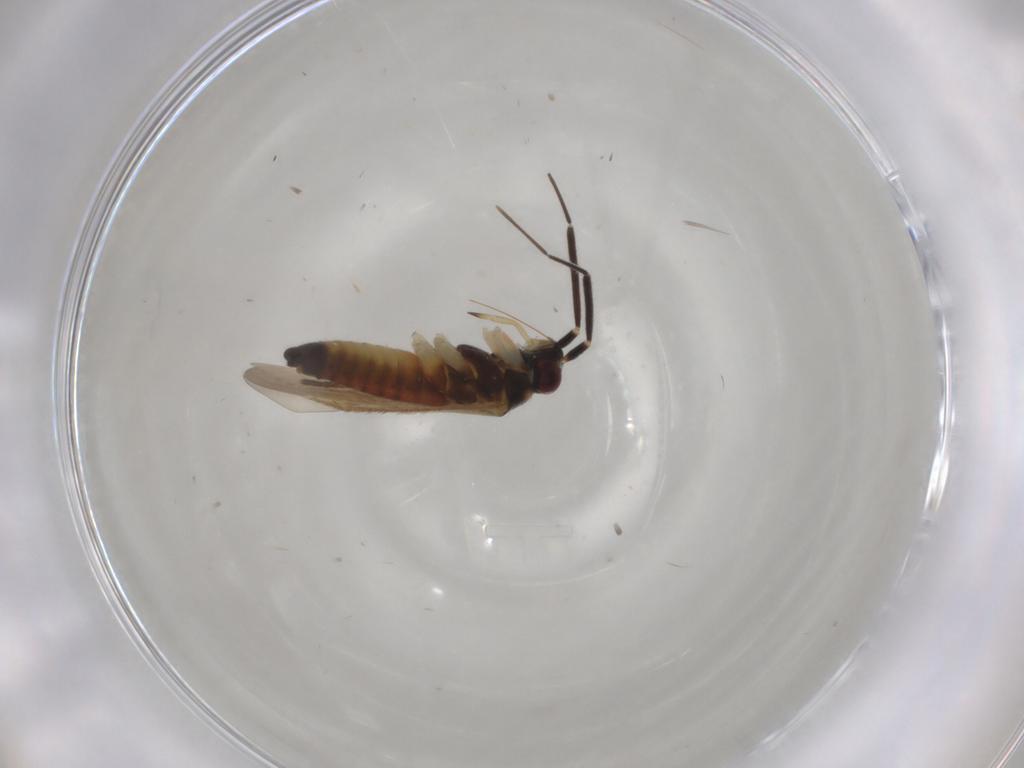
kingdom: Animalia
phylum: Arthropoda
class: Insecta
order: Hemiptera
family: Miridae
